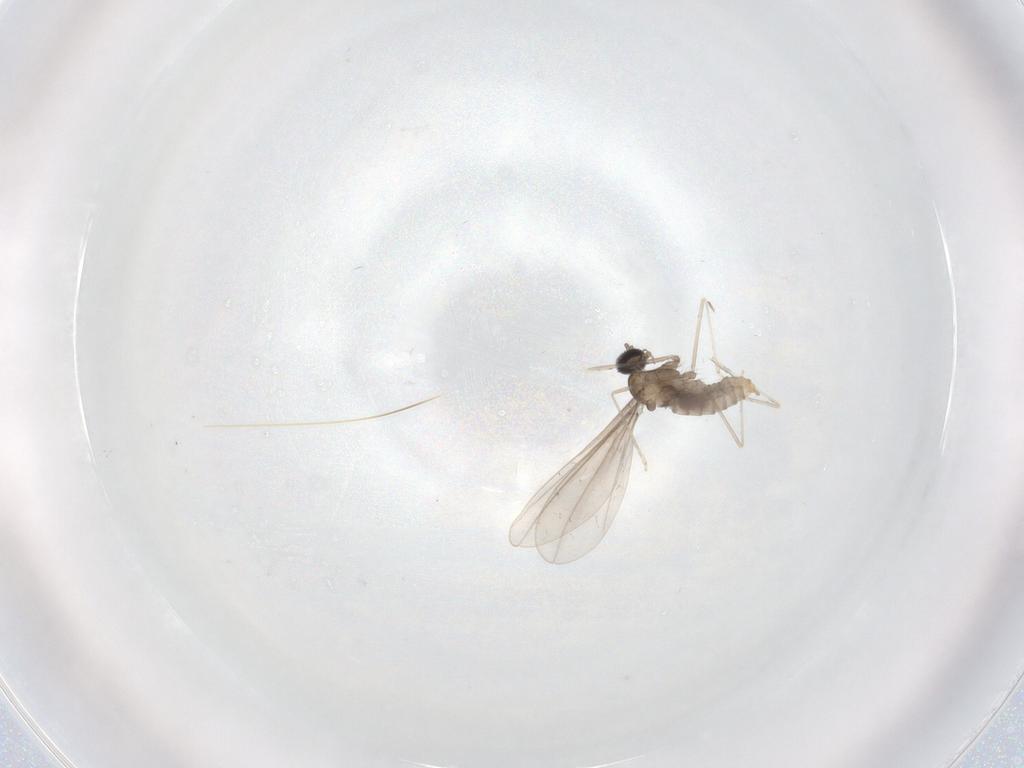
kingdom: Animalia
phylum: Arthropoda
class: Insecta
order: Diptera
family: Cecidomyiidae
